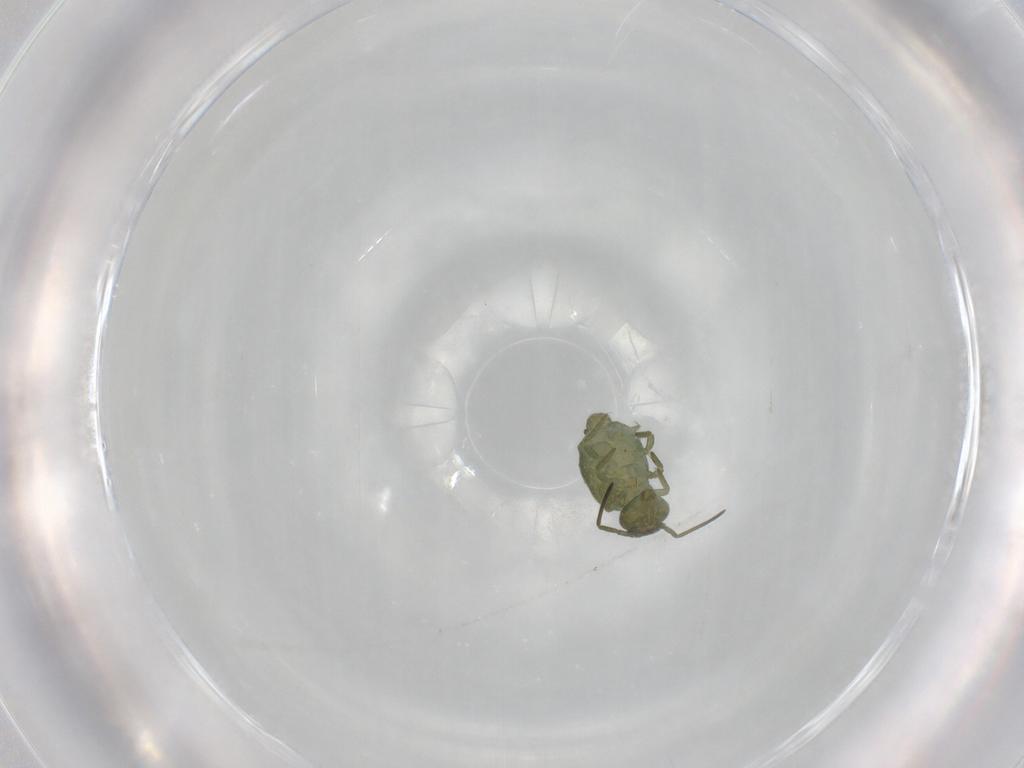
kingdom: Animalia
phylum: Arthropoda
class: Collembola
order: Symphypleona
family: Sminthuridae
